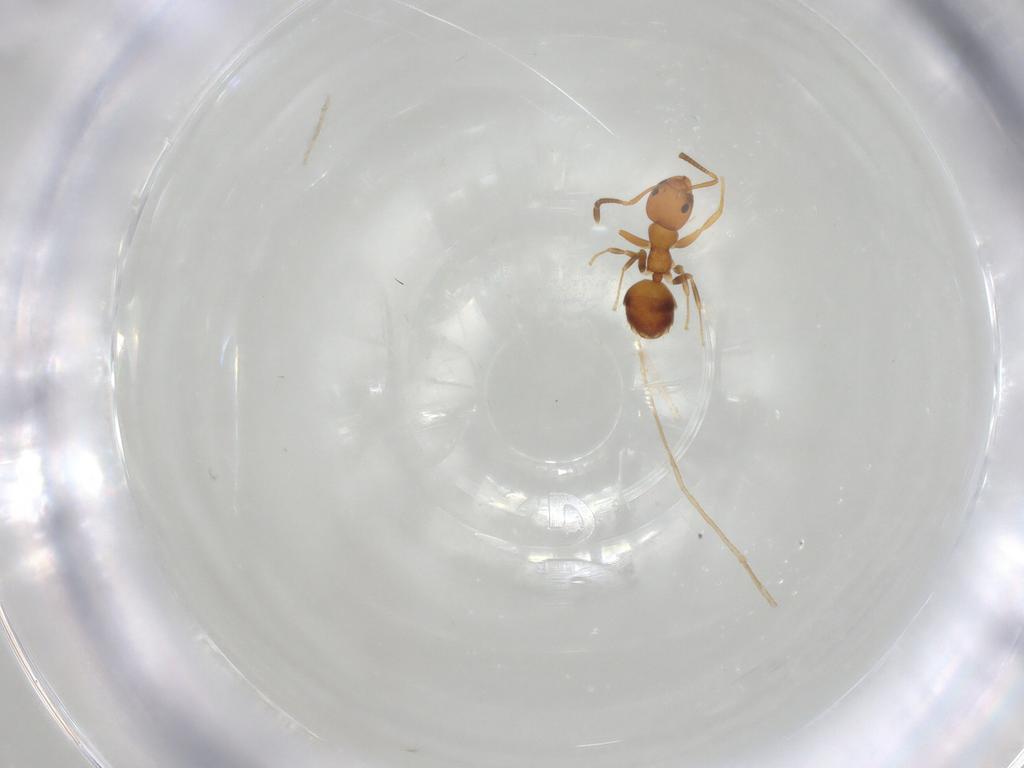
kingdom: Animalia
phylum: Arthropoda
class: Insecta
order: Hymenoptera
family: Formicidae
